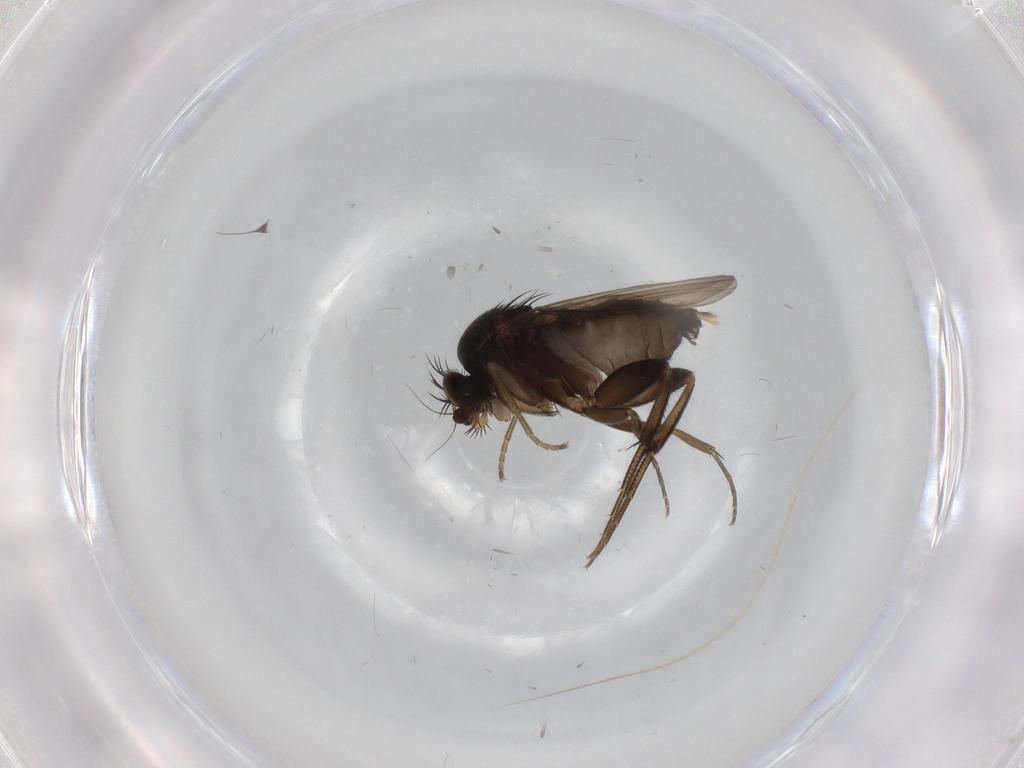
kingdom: Animalia
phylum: Arthropoda
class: Insecta
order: Diptera
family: Phoridae
